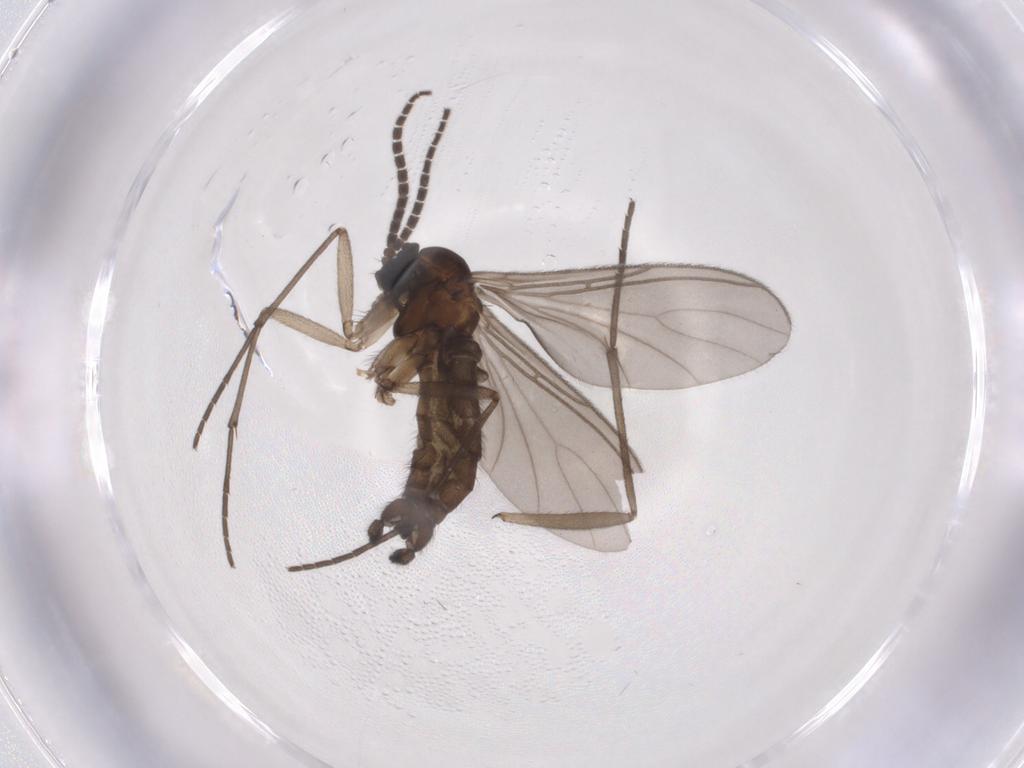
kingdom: Animalia
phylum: Arthropoda
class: Insecta
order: Diptera
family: Sciaridae
